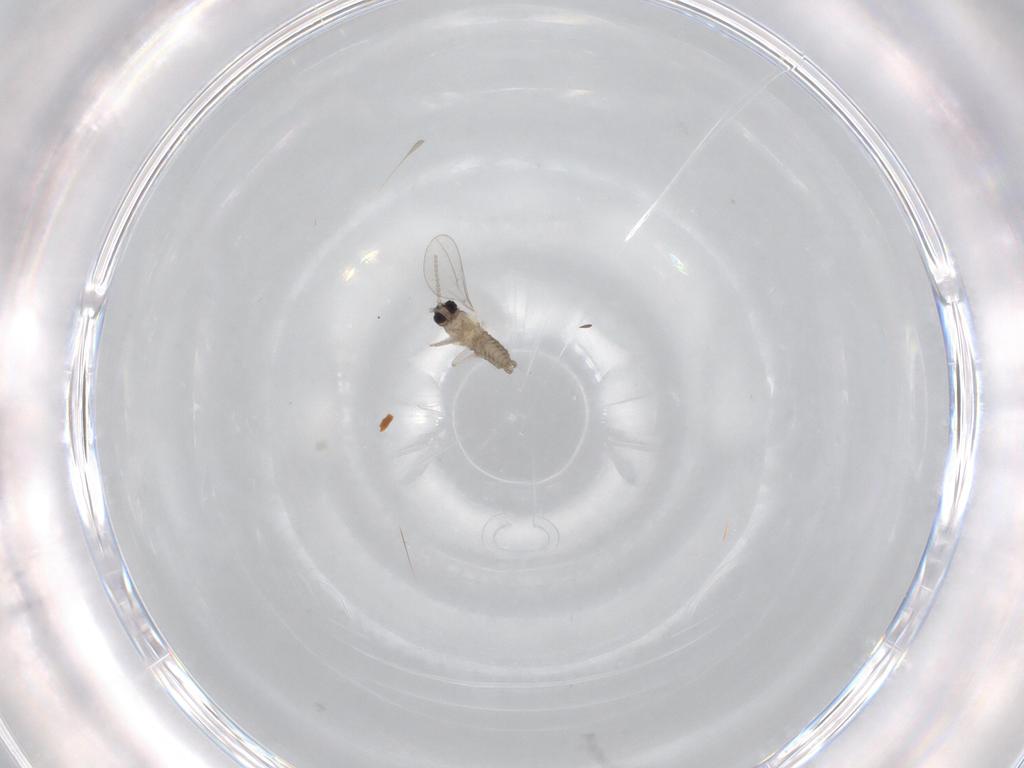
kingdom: Animalia
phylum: Arthropoda
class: Insecta
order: Diptera
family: Cecidomyiidae
